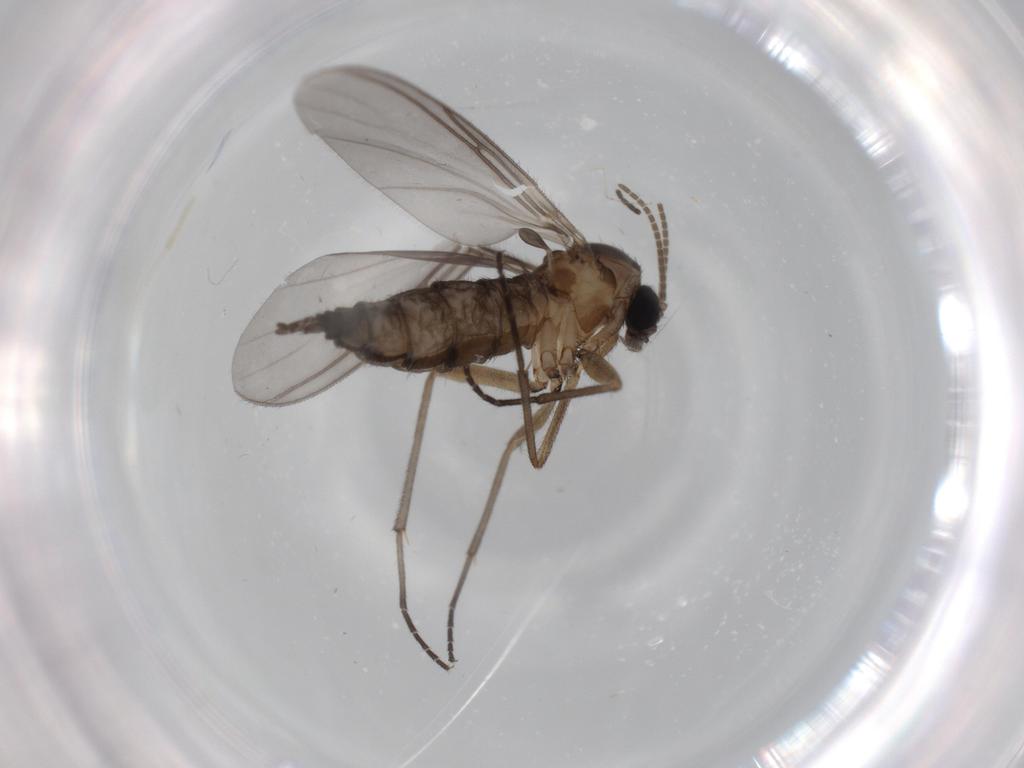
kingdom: Animalia
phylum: Arthropoda
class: Insecta
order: Diptera
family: Sciaridae
